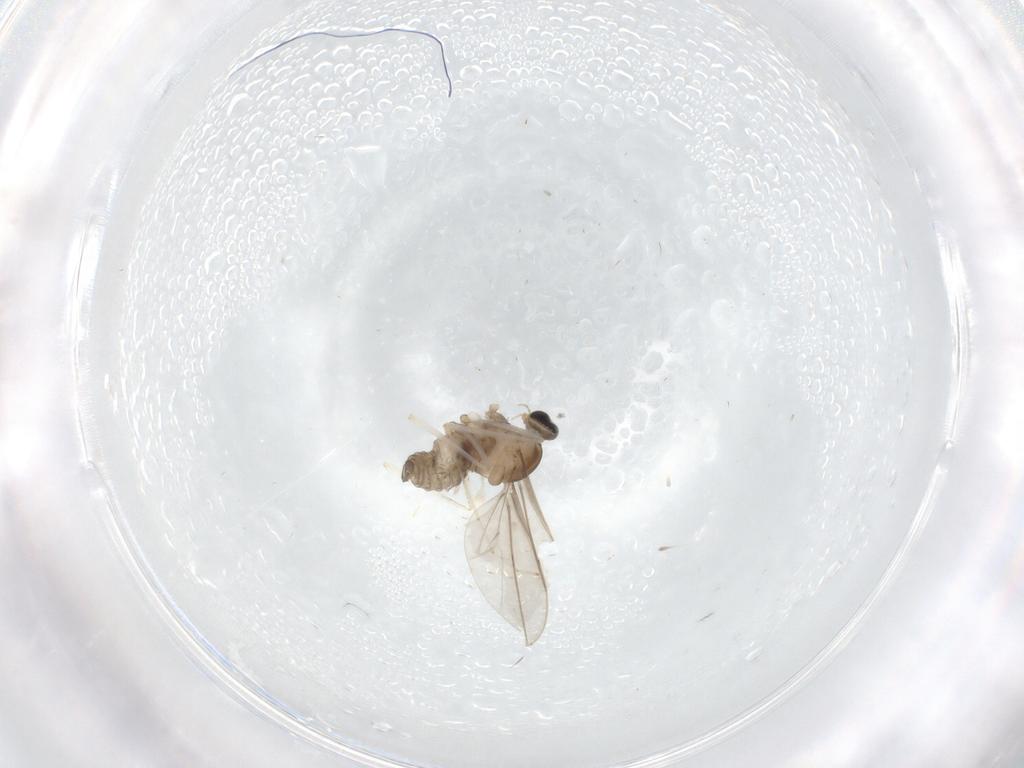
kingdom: Animalia
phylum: Arthropoda
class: Insecta
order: Diptera
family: Cecidomyiidae
